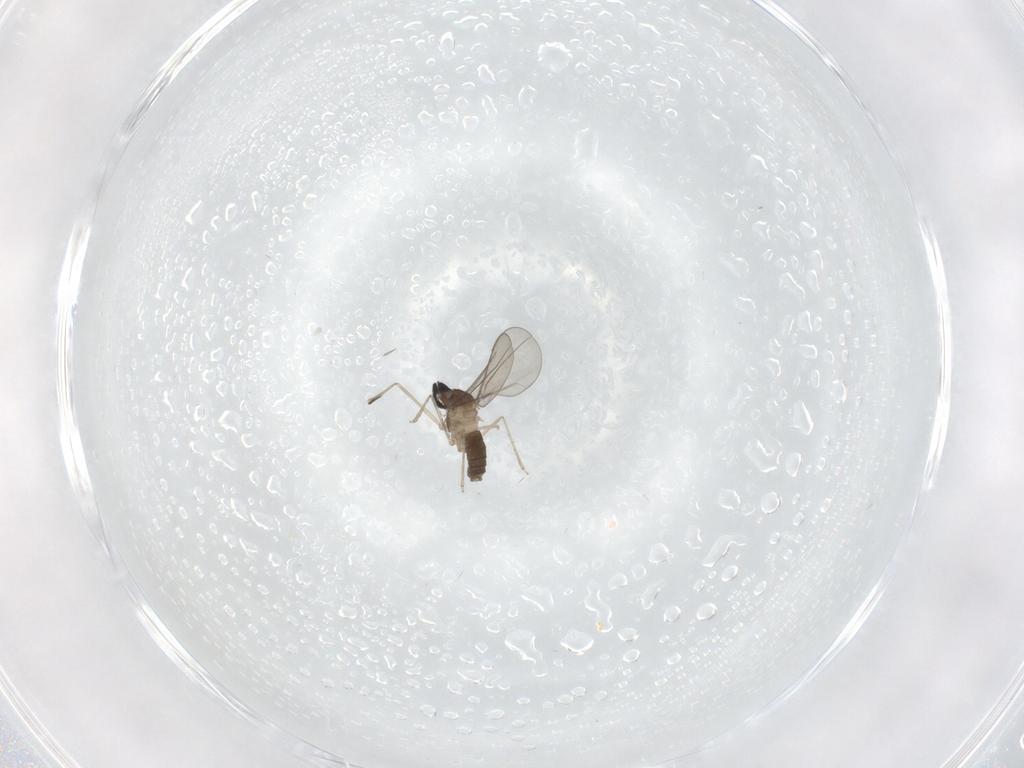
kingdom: Animalia
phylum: Arthropoda
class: Insecta
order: Diptera
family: Cecidomyiidae
